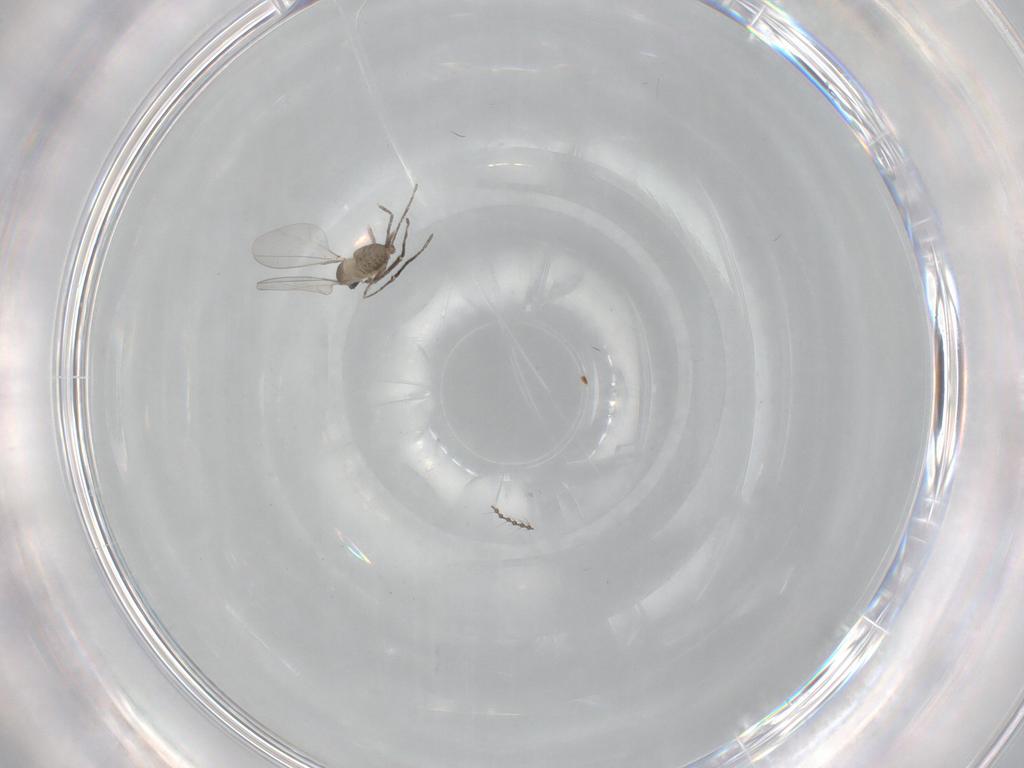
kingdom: Animalia
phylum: Arthropoda
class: Insecta
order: Diptera
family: Cecidomyiidae
